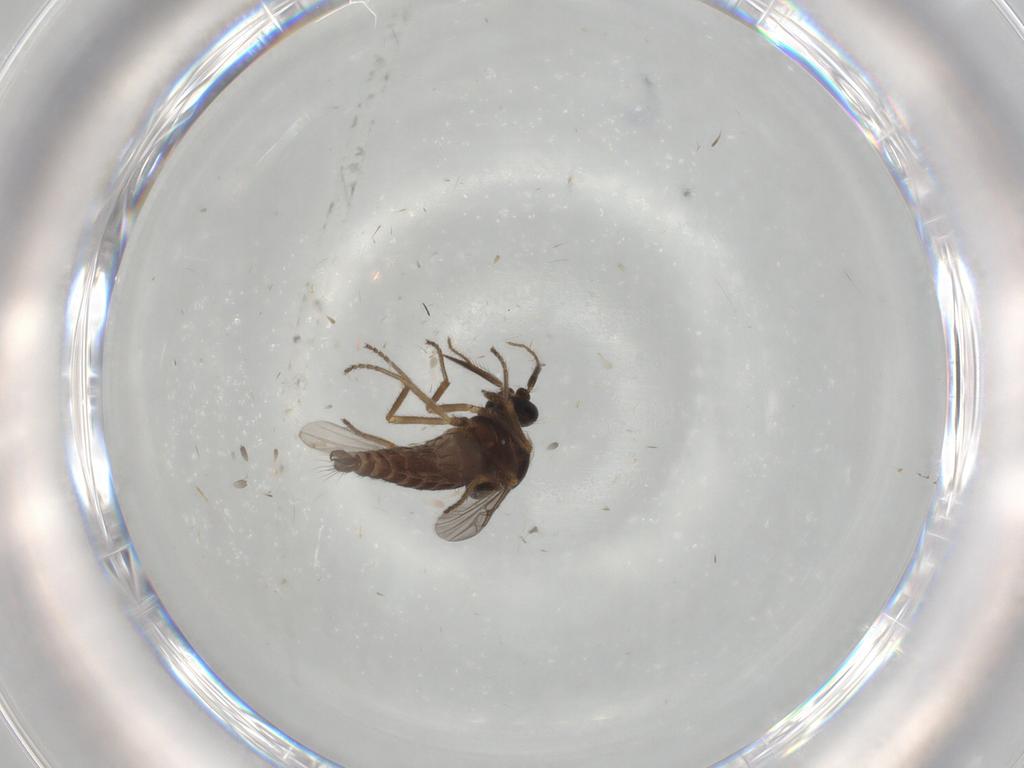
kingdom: Animalia
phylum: Arthropoda
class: Insecta
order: Diptera
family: Ceratopogonidae
